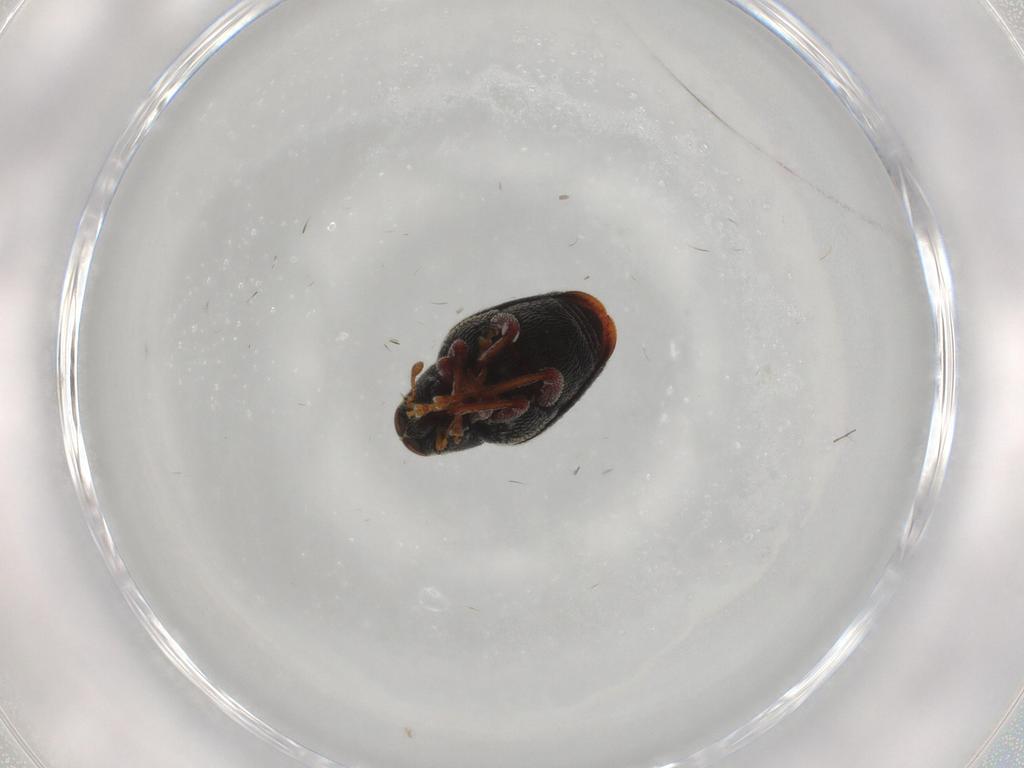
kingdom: Animalia
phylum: Arthropoda
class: Insecta
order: Coleoptera
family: Curculionidae
